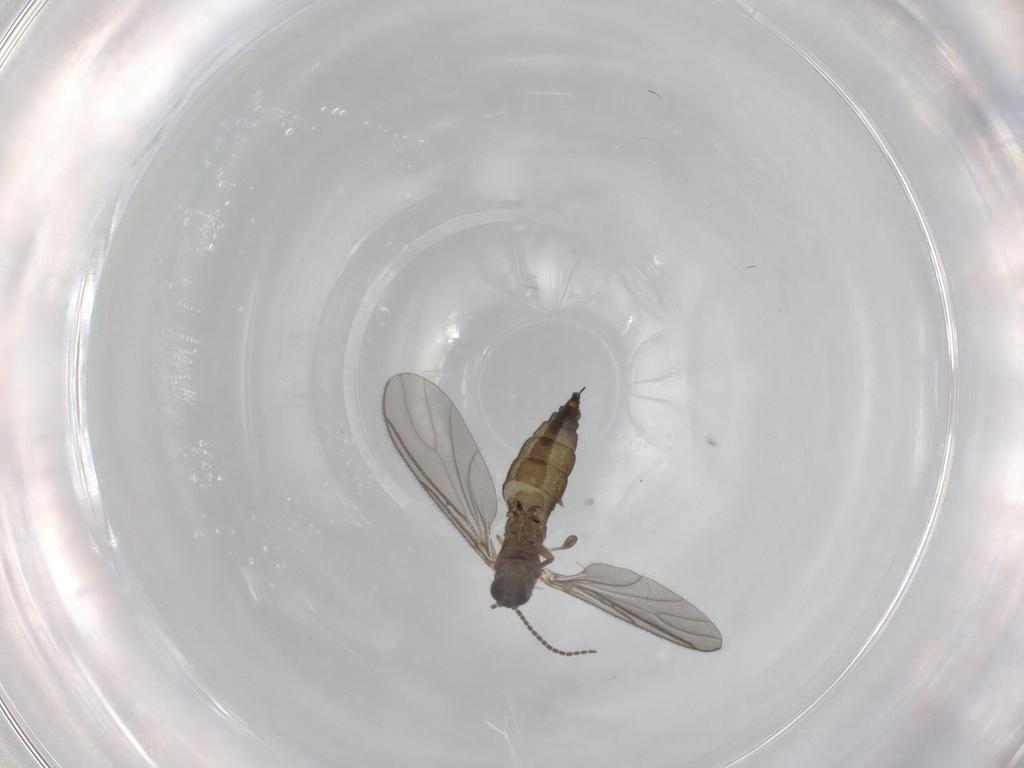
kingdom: Animalia
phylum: Arthropoda
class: Insecta
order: Diptera
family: Sciaridae
